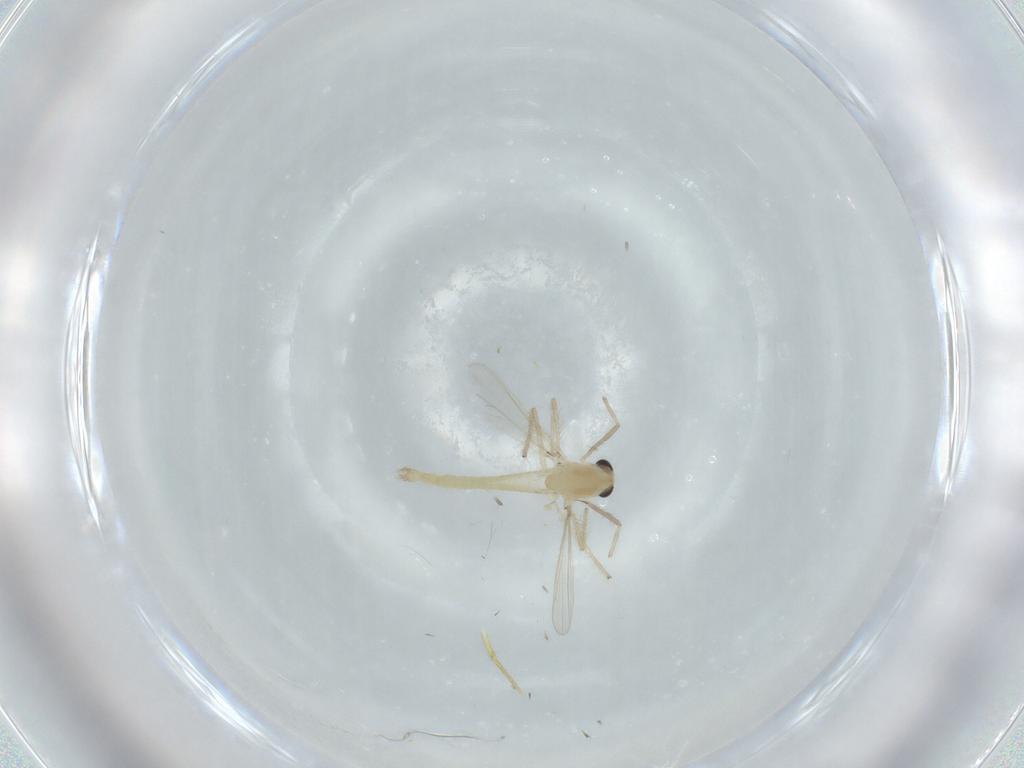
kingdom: Animalia
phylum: Arthropoda
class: Insecta
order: Diptera
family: Chironomidae
